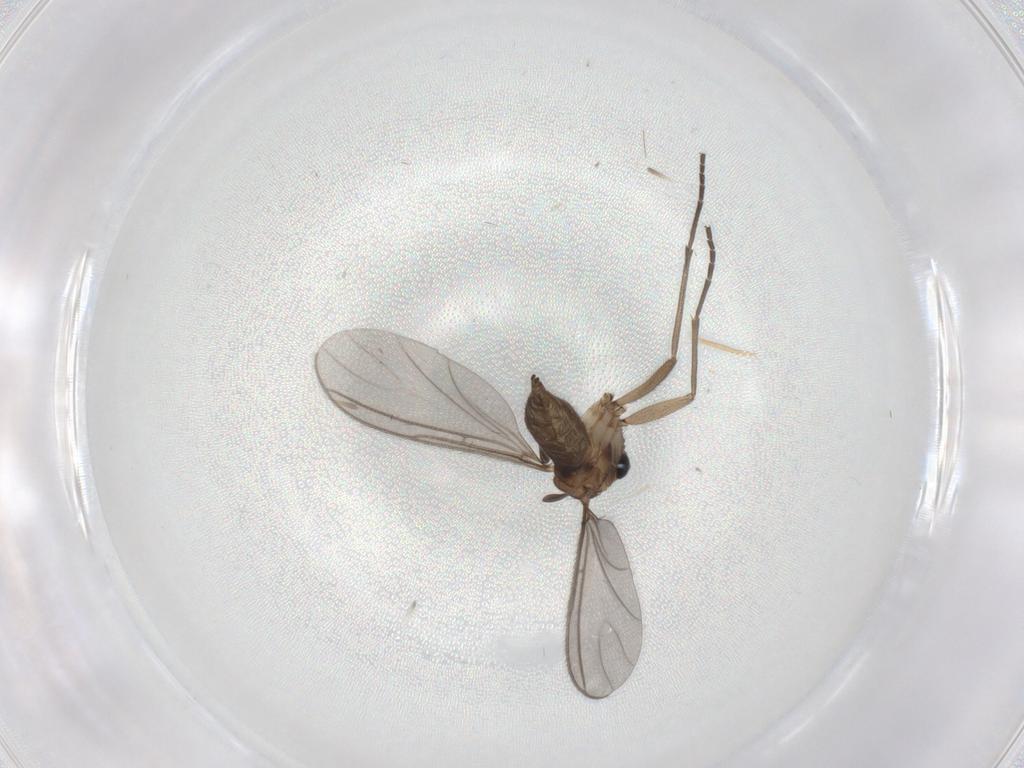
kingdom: Animalia
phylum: Arthropoda
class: Insecta
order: Diptera
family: Sciaridae
